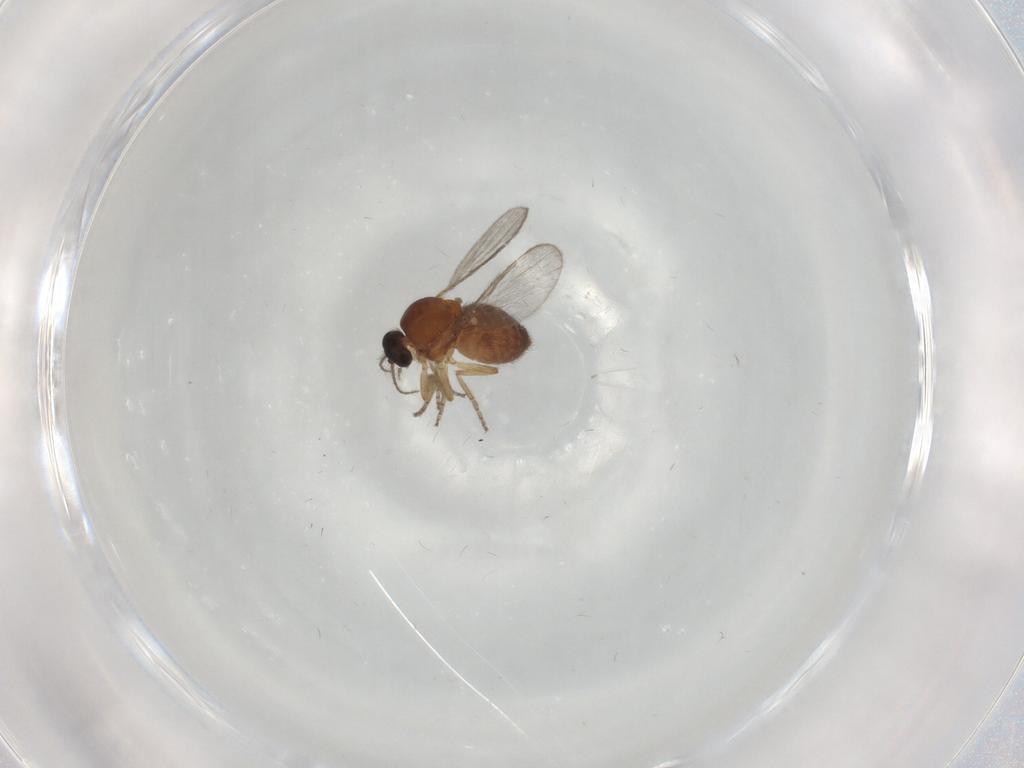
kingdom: Animalia
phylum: Arthropoda
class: Insecta
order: Diptera
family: Ceratopogonidae
